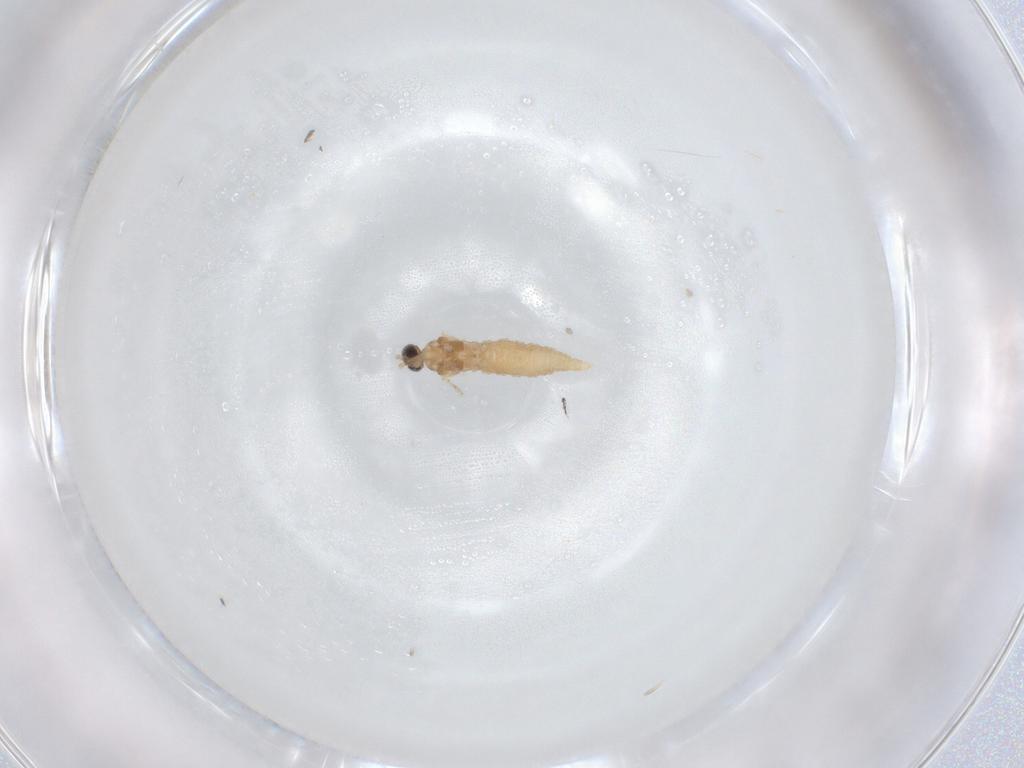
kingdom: Animalia
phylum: Arthropoda
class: Insecta
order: Diptera
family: Cecidomyiidae
